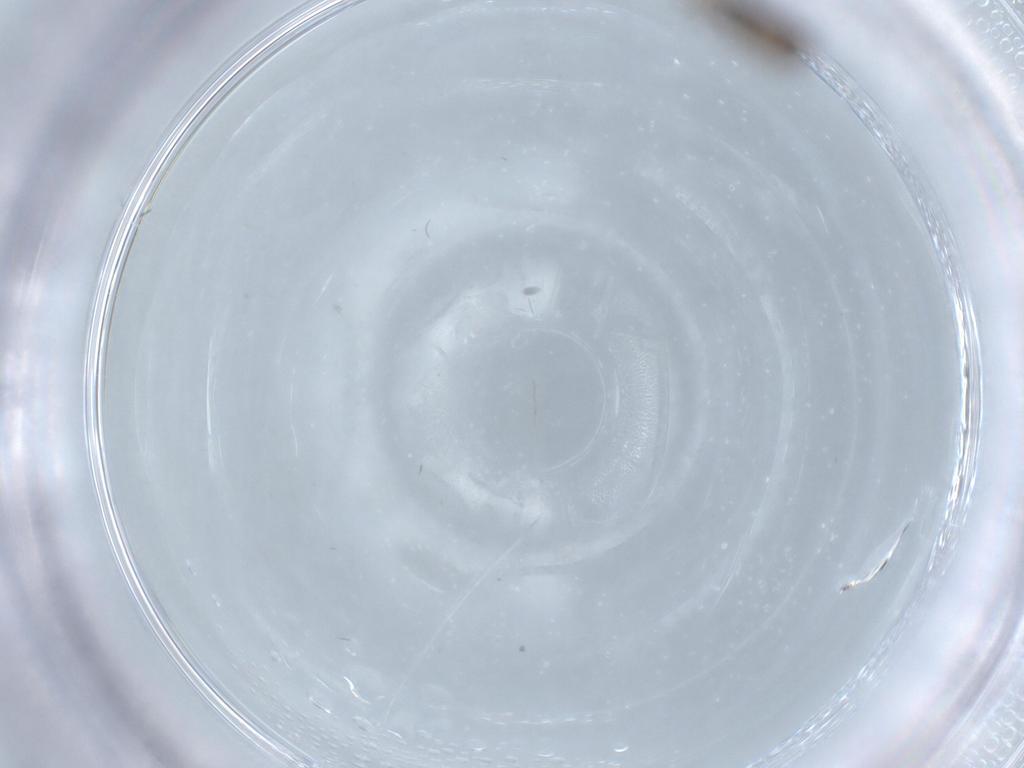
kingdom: Animalia
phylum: Arthropoda
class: Insecta
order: Diptera
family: Phoridae
